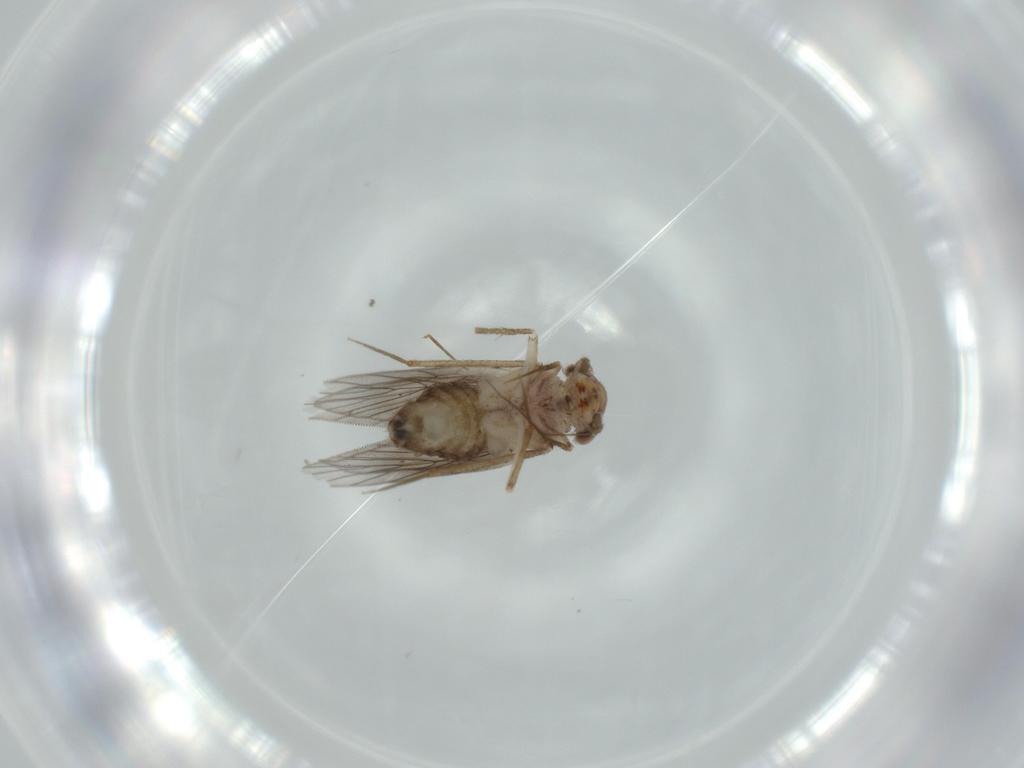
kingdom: Animalia
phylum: Arthropoda
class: Insecta
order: Psocodea
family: Lepidopsocidae
